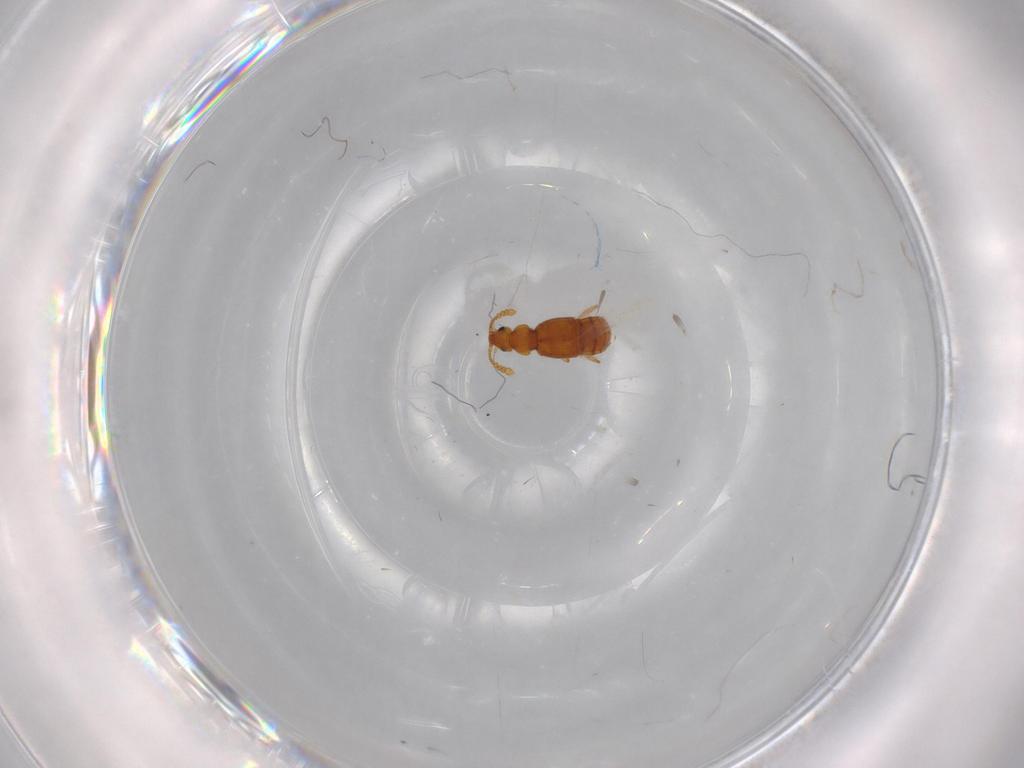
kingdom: Animalia
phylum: Arthropoda
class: Insecta
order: Coleoptera
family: Staphylinidae
